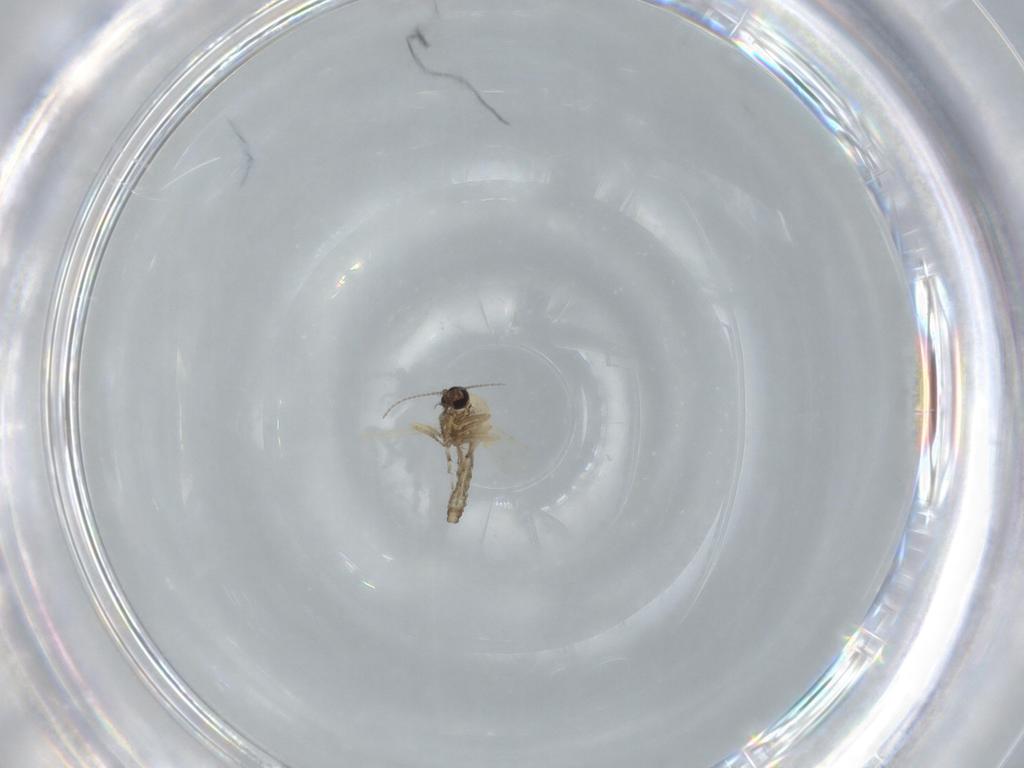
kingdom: Animalia
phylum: Arthropoda
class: Insecta
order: Diptera
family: Ceratopogonidae
